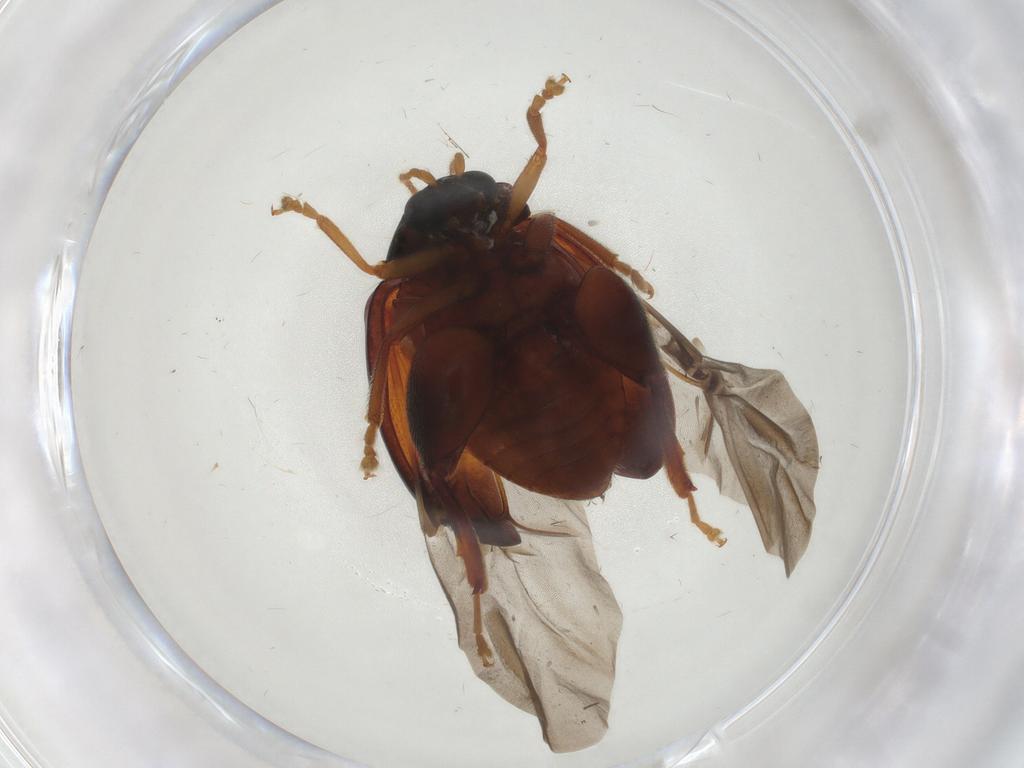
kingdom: Animalia
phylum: Arthropoda
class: Insecta
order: Coleoptera
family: Chrysomelidae
